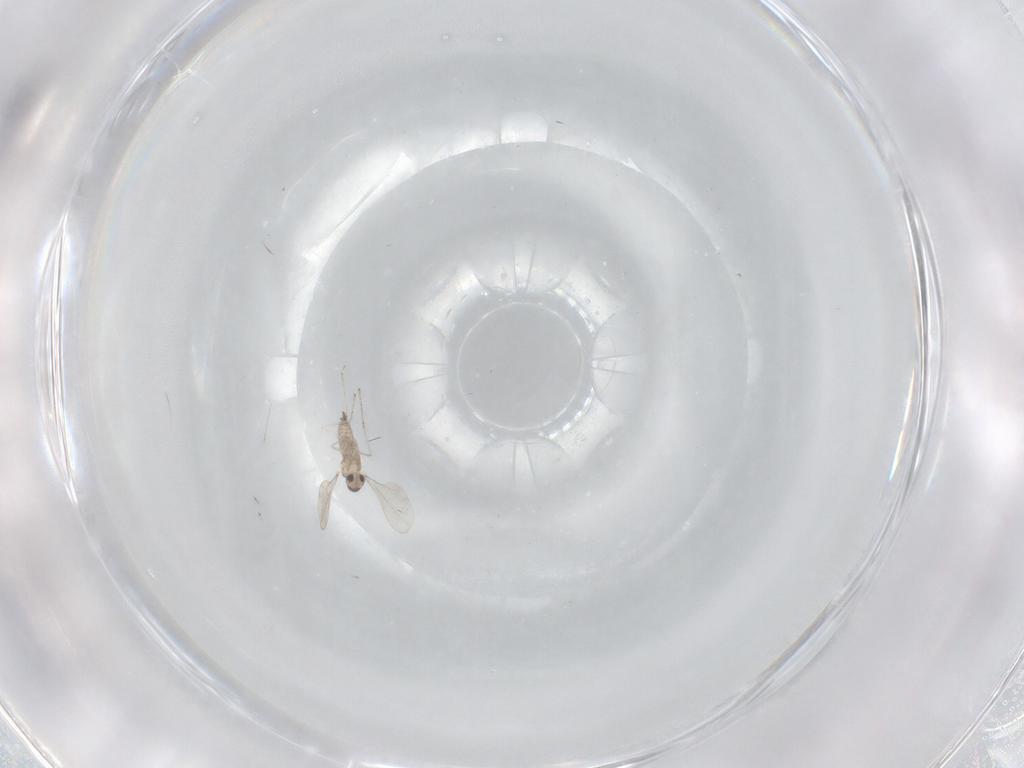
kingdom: Animalia
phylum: Arthropoda
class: Insecta
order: Diptera
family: Cecidomyiidae
